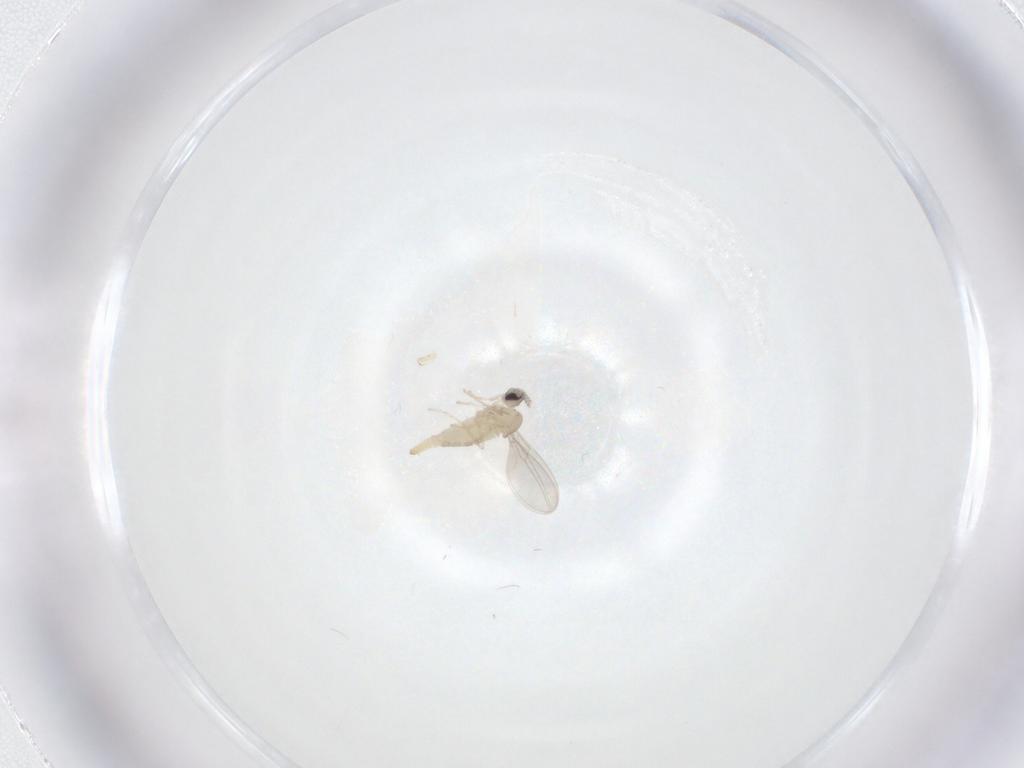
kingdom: Animalia
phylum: Arthropoda
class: Insecta
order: Diptera
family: Cecidomyiidae
